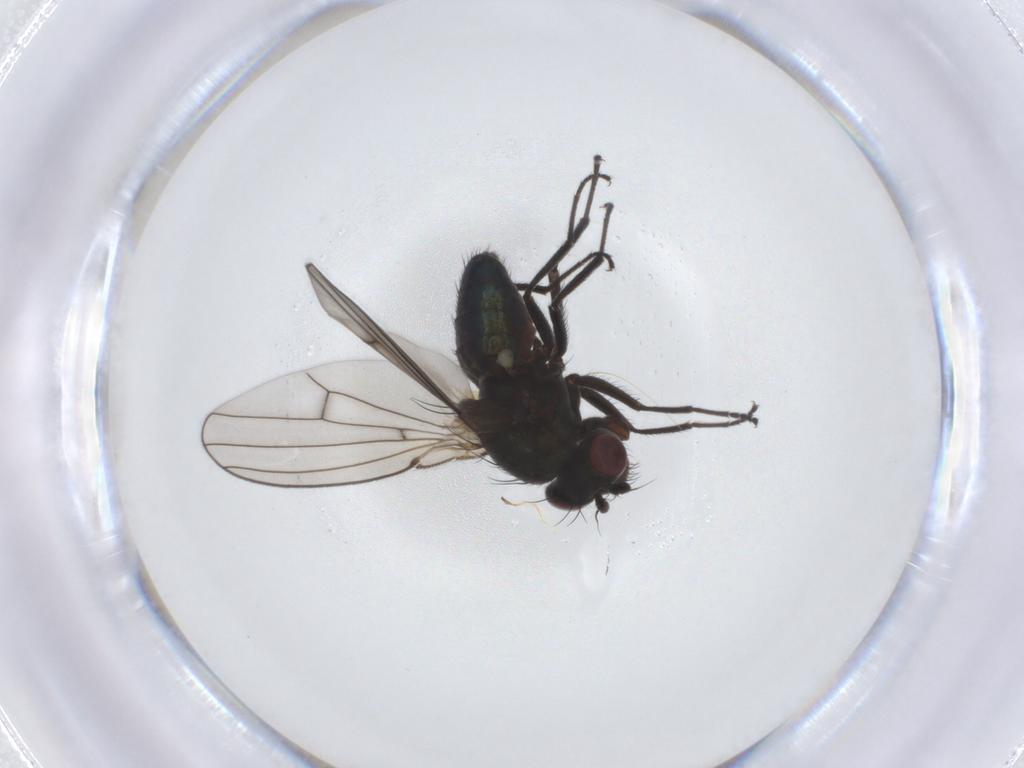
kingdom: Animalia
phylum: Arthropoda
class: Insecta
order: Diptera
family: Ephydridae
